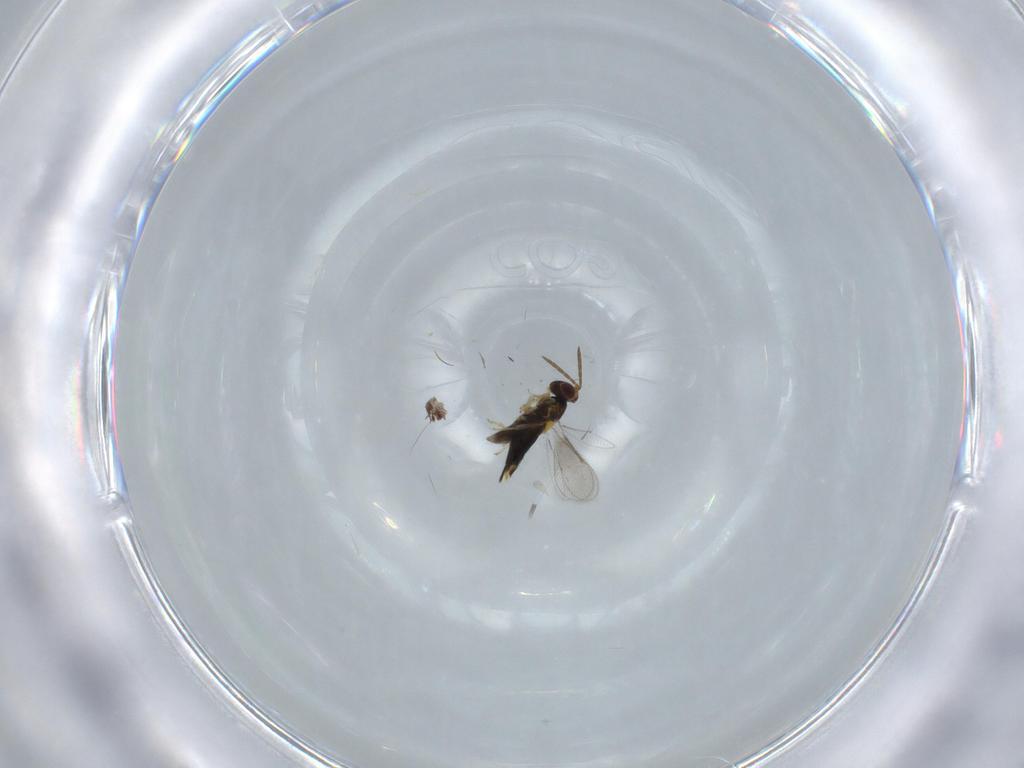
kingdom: Animalia
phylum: Arthropoda
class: Insecta
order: Hymenoptera
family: Aphelinidae
